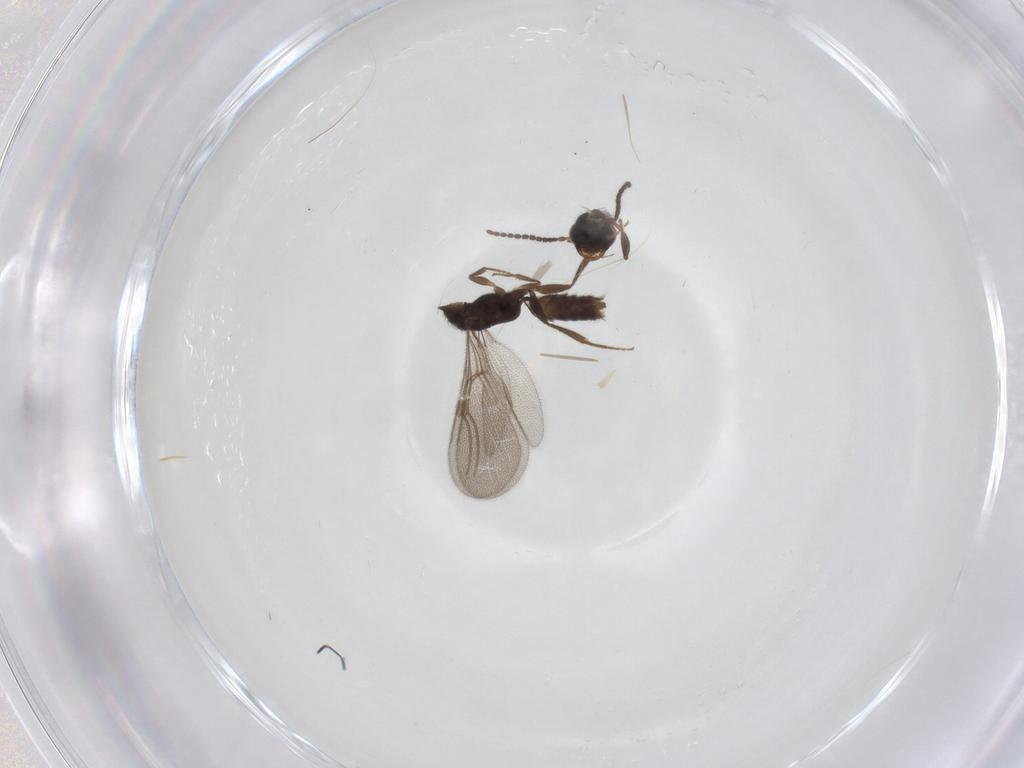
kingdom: Animalia
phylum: Arthropoda
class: Insecta
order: Hymenoptera
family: Bethylidae
